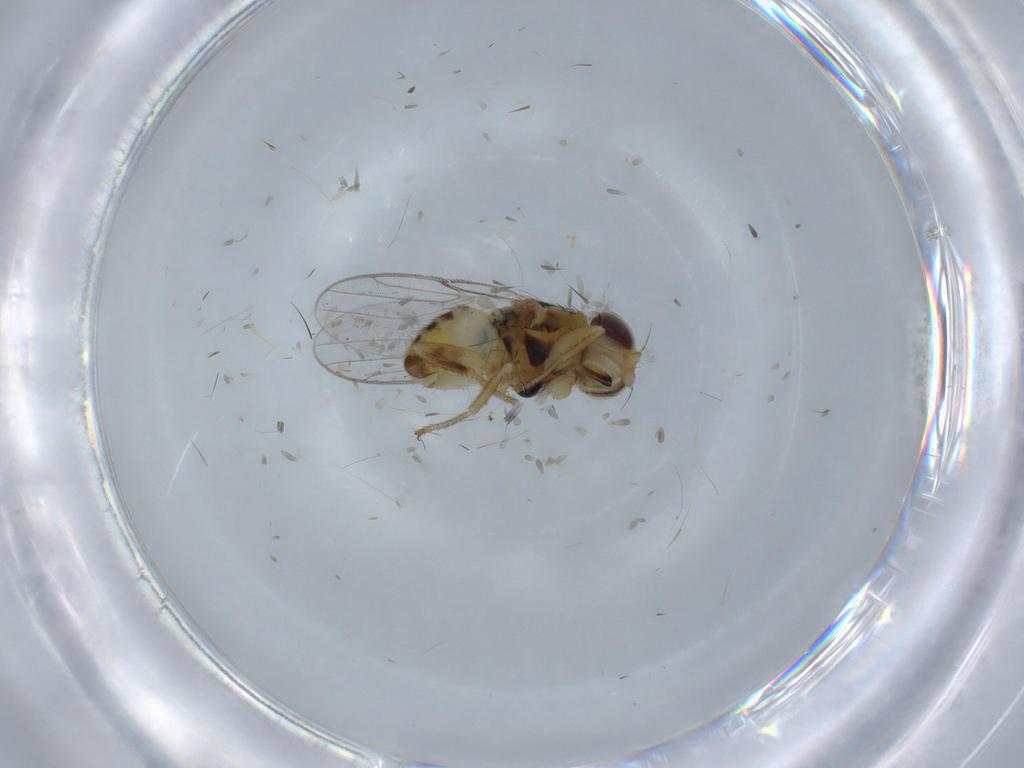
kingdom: Animalia
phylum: Arthropoda
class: Insecta
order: Diptera
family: Chloropidae
